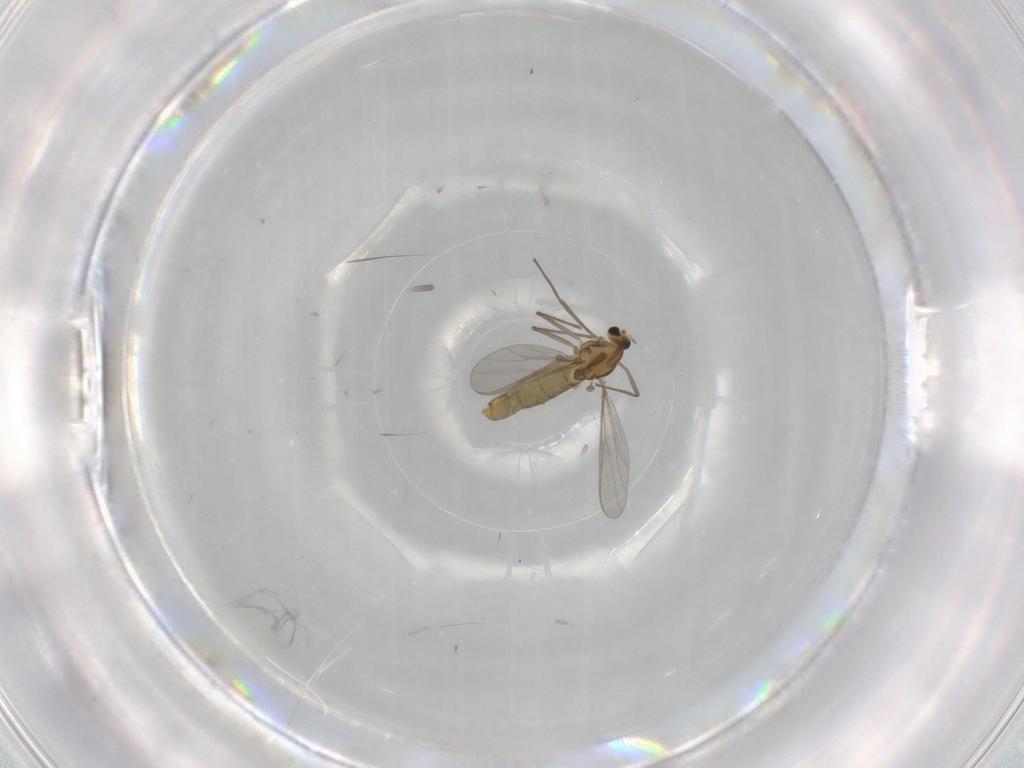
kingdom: Animalia
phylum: Arthropoda
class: Insecta
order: Diptera
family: Chironomidae
